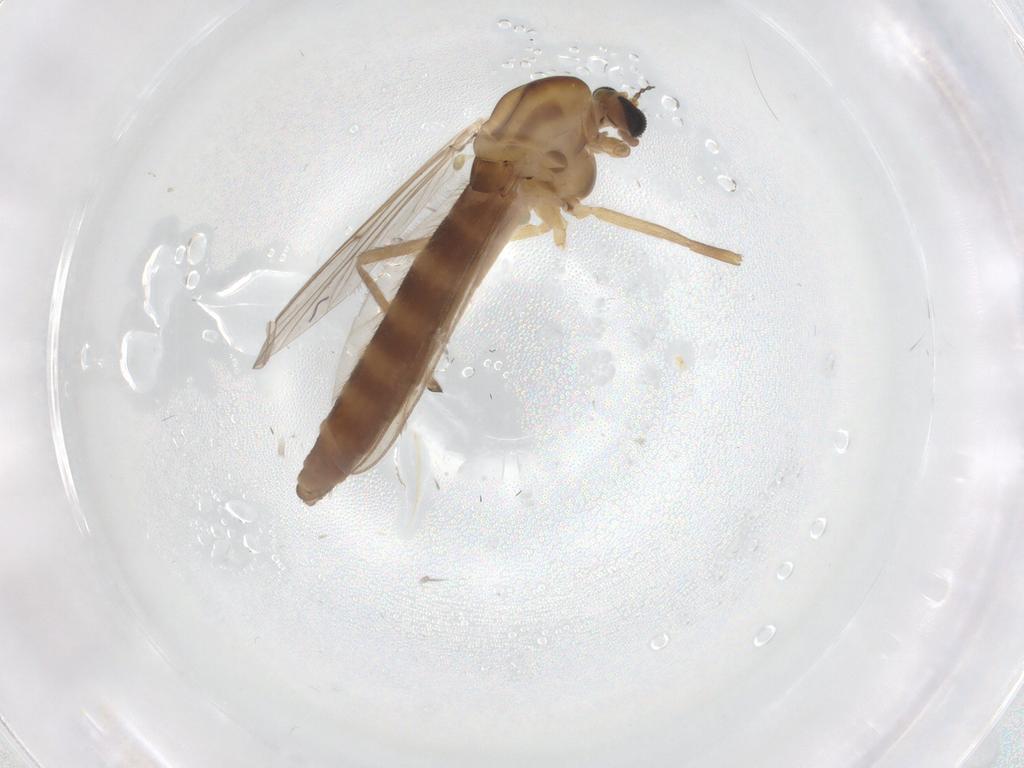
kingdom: Animalia
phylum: Arthropoda
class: Insecta
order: Diptera
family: Chironomidae
